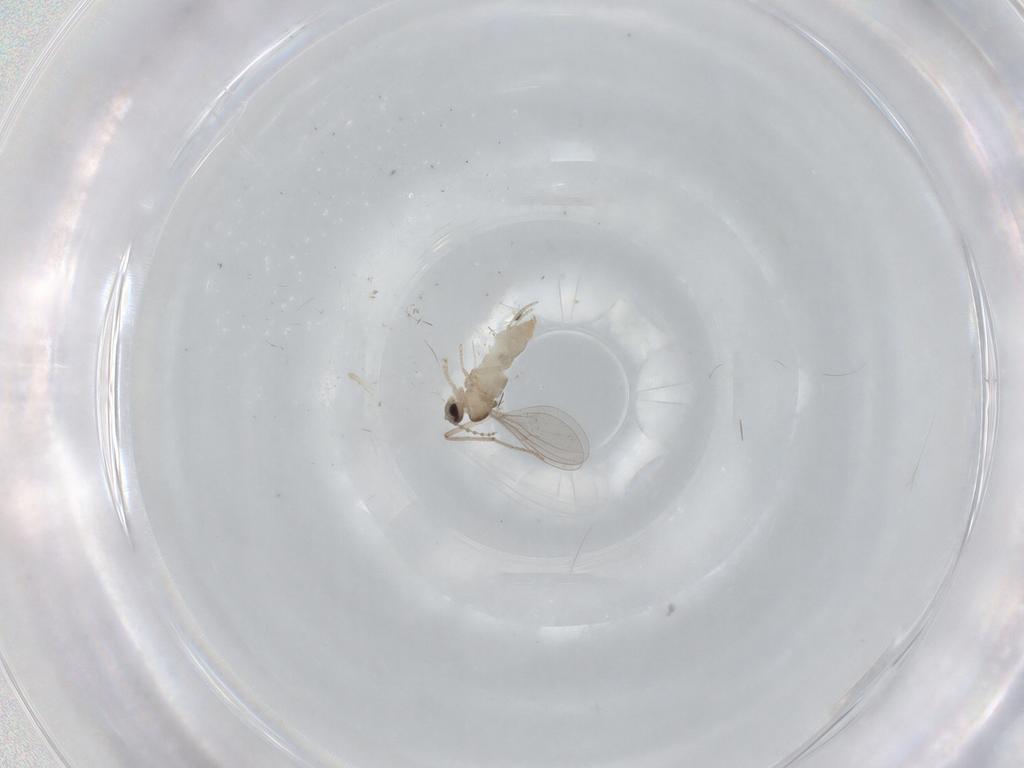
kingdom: Animalia
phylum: Arthropoda
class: Insecta
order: Diptera
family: Cecidomyiidae
